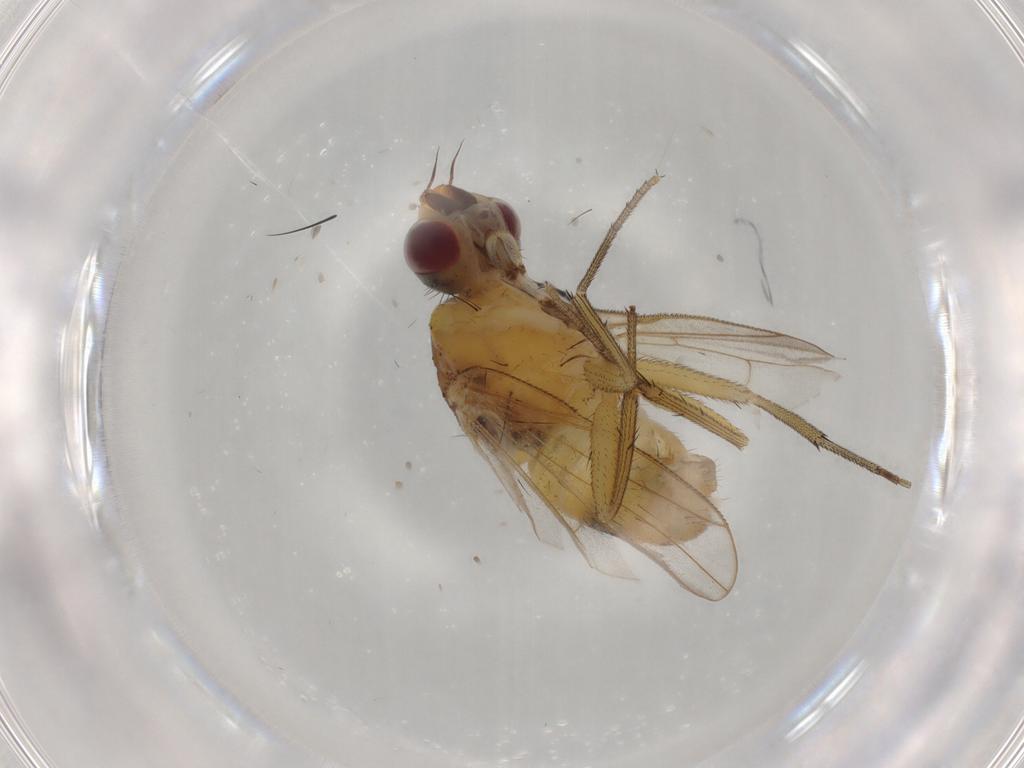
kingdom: Animalia
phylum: Arthropoda
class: Insecta
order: Diptera
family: Muscidae
